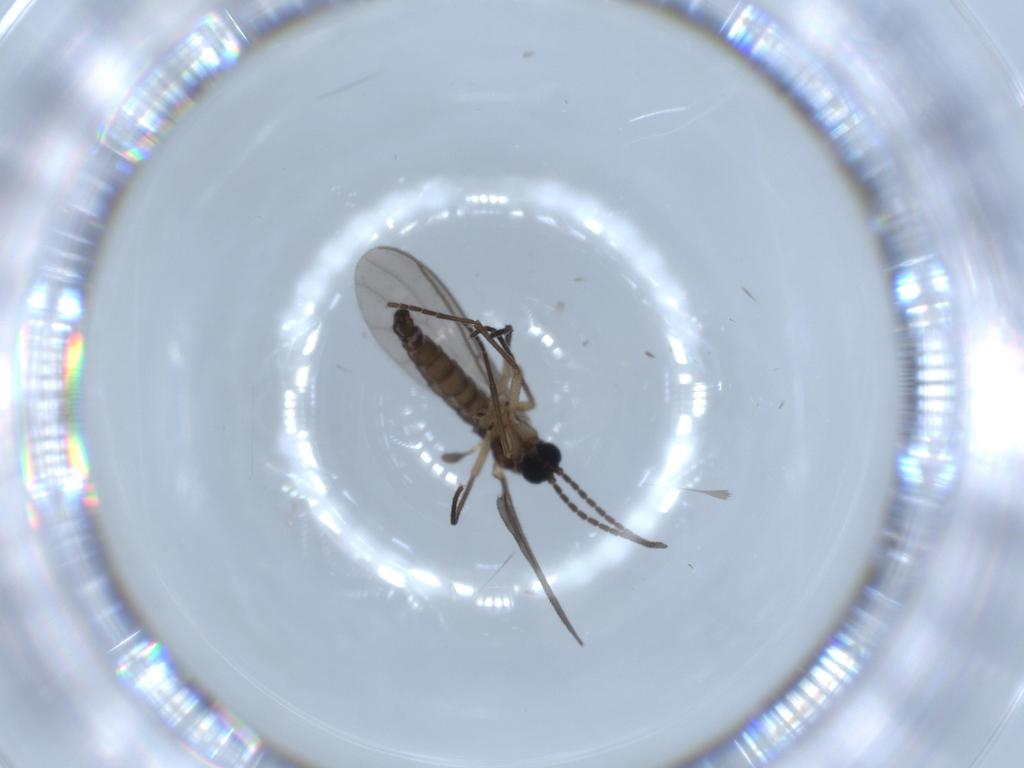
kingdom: Animalia
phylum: Arthropoda
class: Insecta
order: Diptera
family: Sciaridae
